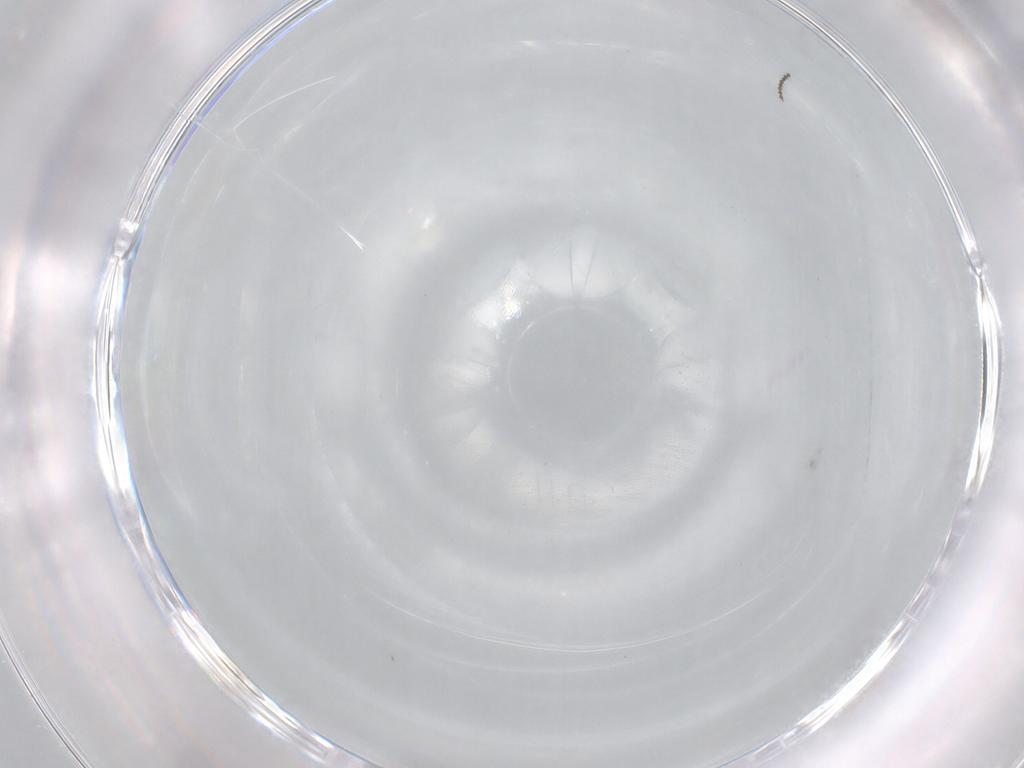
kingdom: Animalia
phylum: Arthropoda
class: Insecta
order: Diptera
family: Cecidomyiidae
